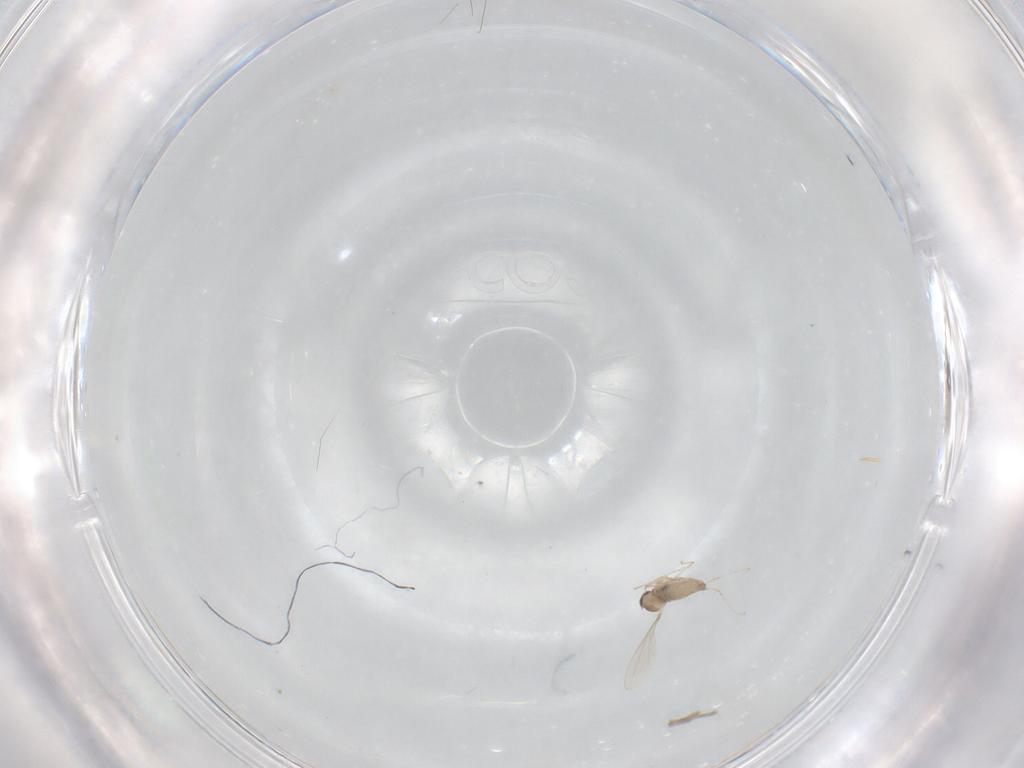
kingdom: Animalia
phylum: Arthropoda
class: Insecta
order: Diptera
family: Cecidomyiidae
